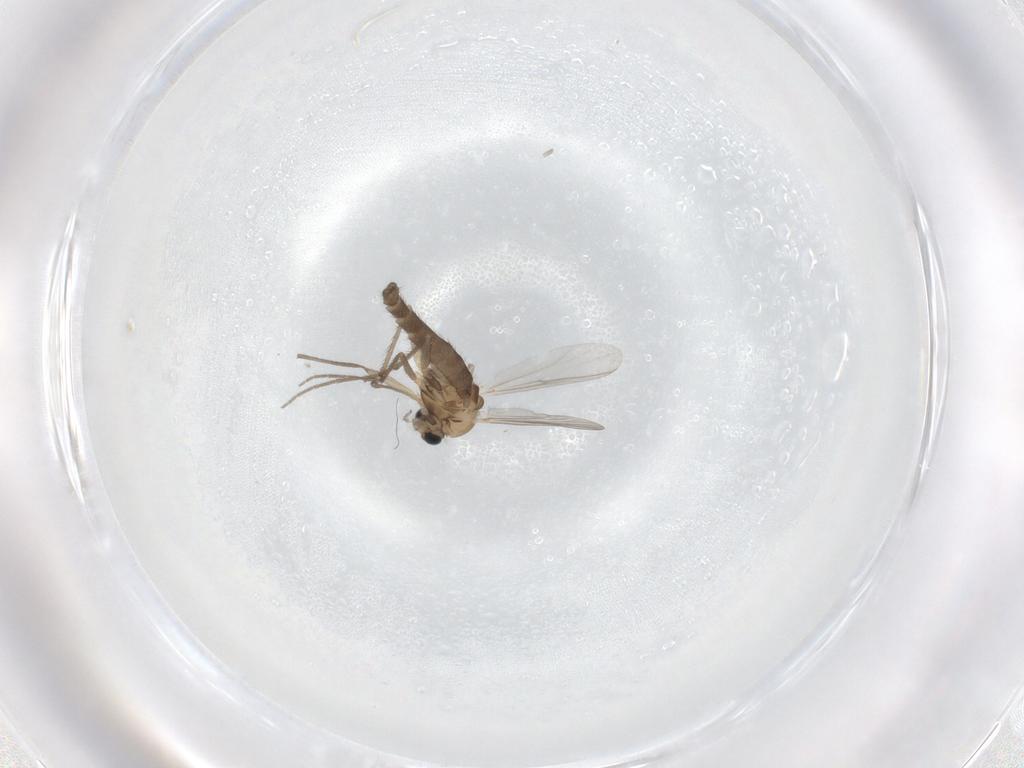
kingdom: Animalia
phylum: Arthropoda
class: Insecta
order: Diptera
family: Chironomidae
